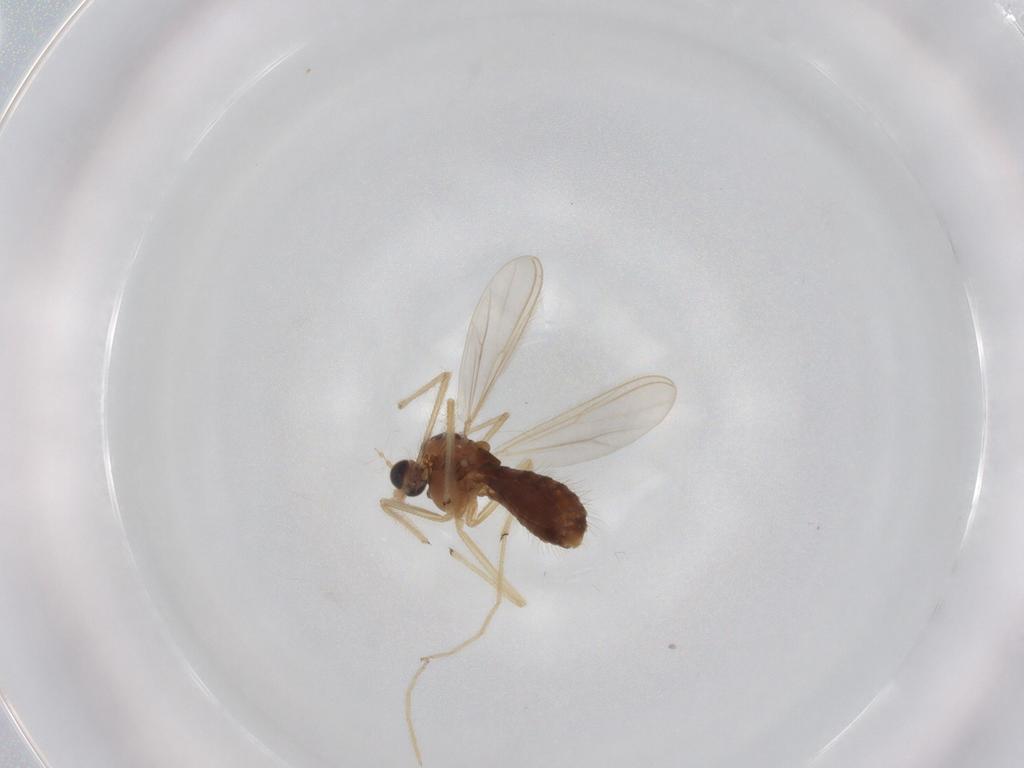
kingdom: Animalia
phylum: Arthropoda
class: Insecta
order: Diptera
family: Chironomidae
